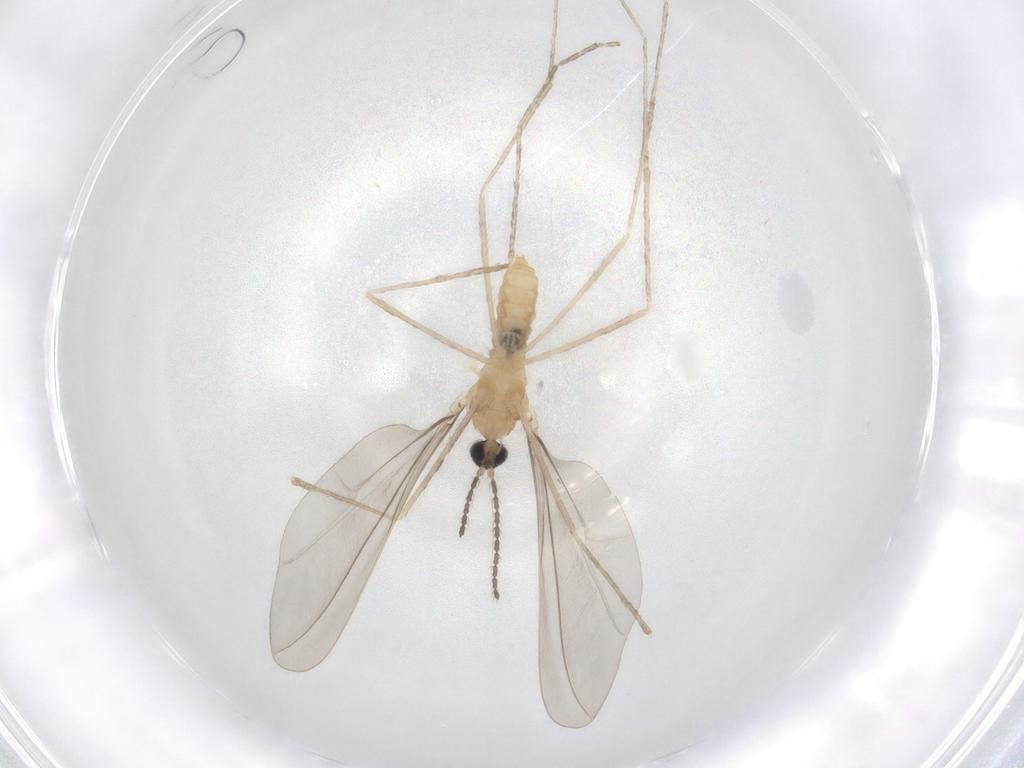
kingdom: Animalia
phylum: Arthropoda
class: Insecta
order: Diptera
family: Cecidomyiidae
